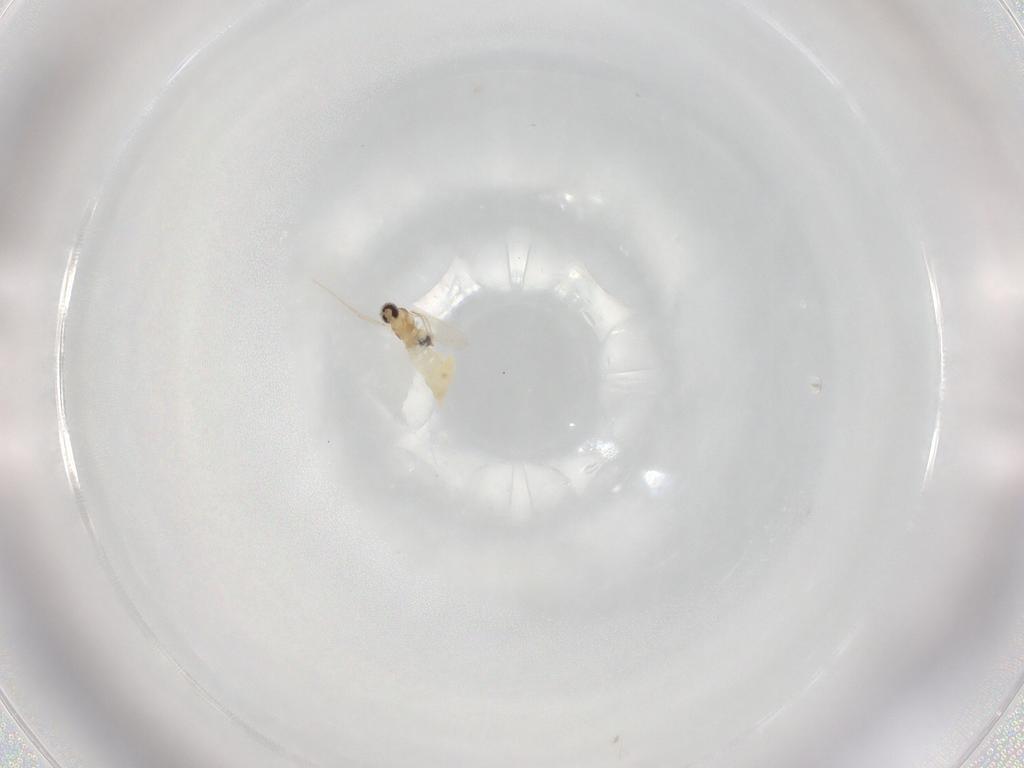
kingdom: Animalia
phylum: Arthropoda
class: Insecta
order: Diptera
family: Cecidomyiidae
